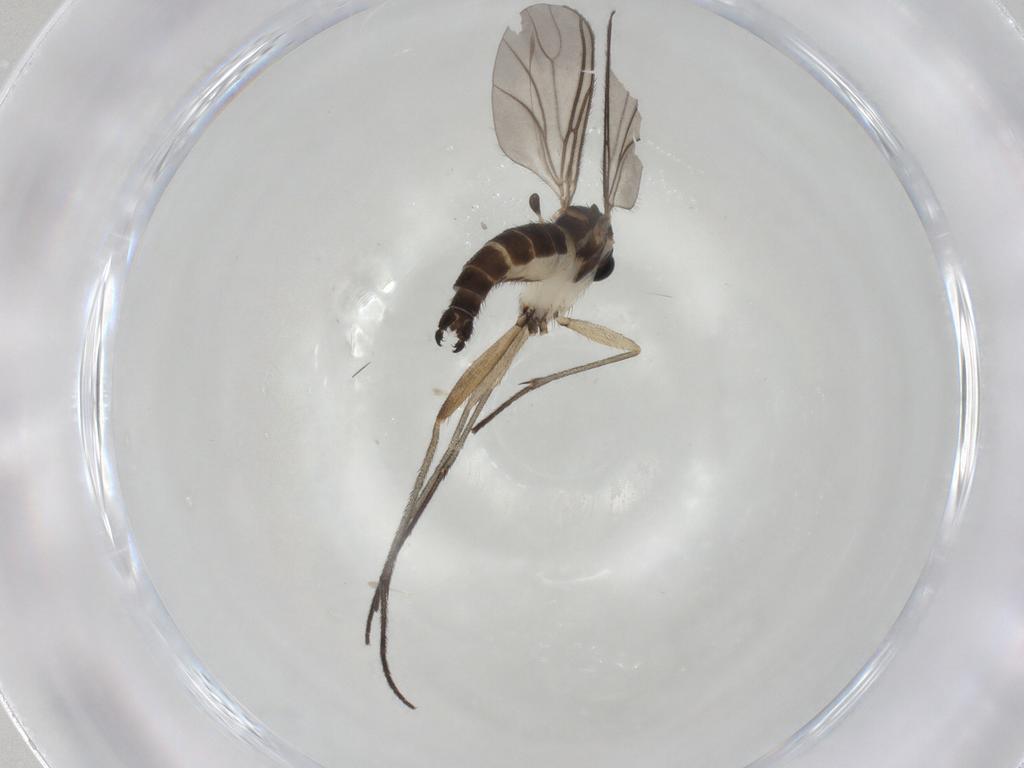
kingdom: Animalia
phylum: Arthropoda
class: Insecta
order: Diptera
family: Sciaridae
